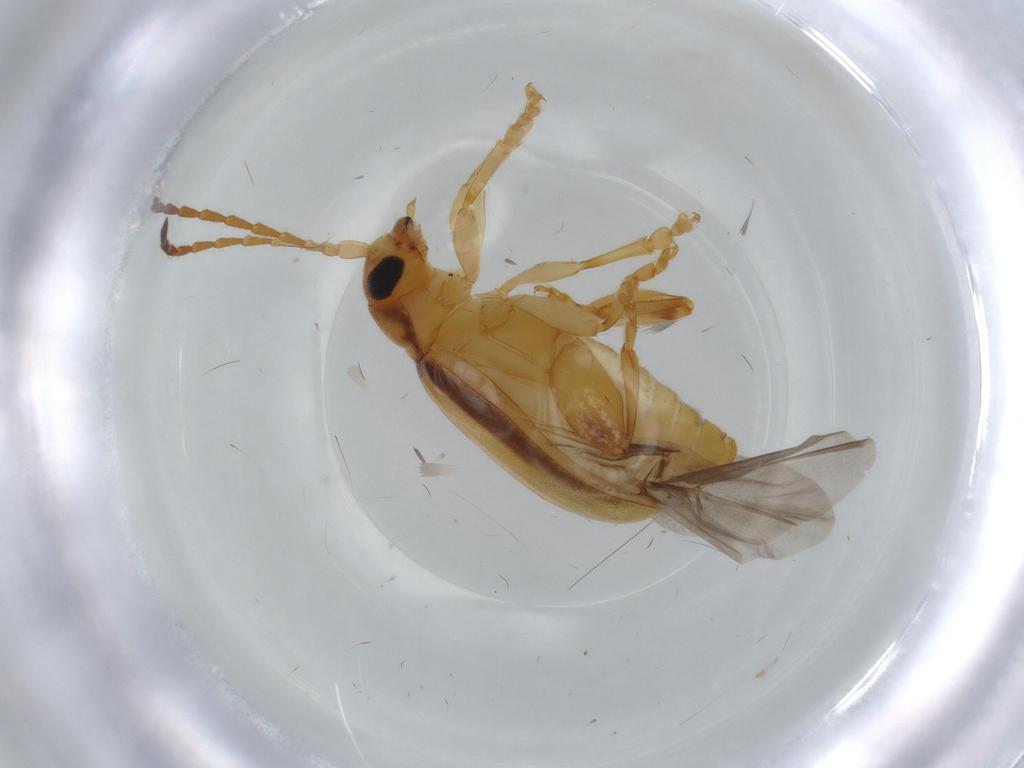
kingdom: Animalia
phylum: Arthropoda
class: Insecta
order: Coleoptera
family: Chrysomelidae
